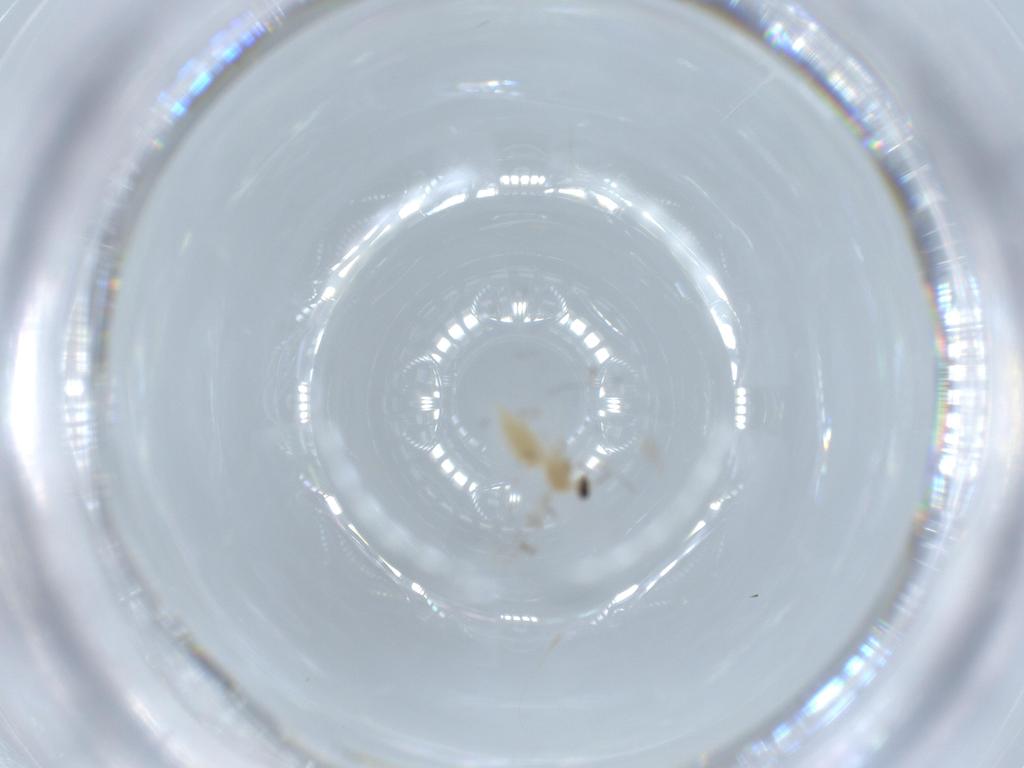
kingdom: Animalia
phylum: Arthropoda
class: Insecta
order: Diptera
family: Cecidomyiidae
